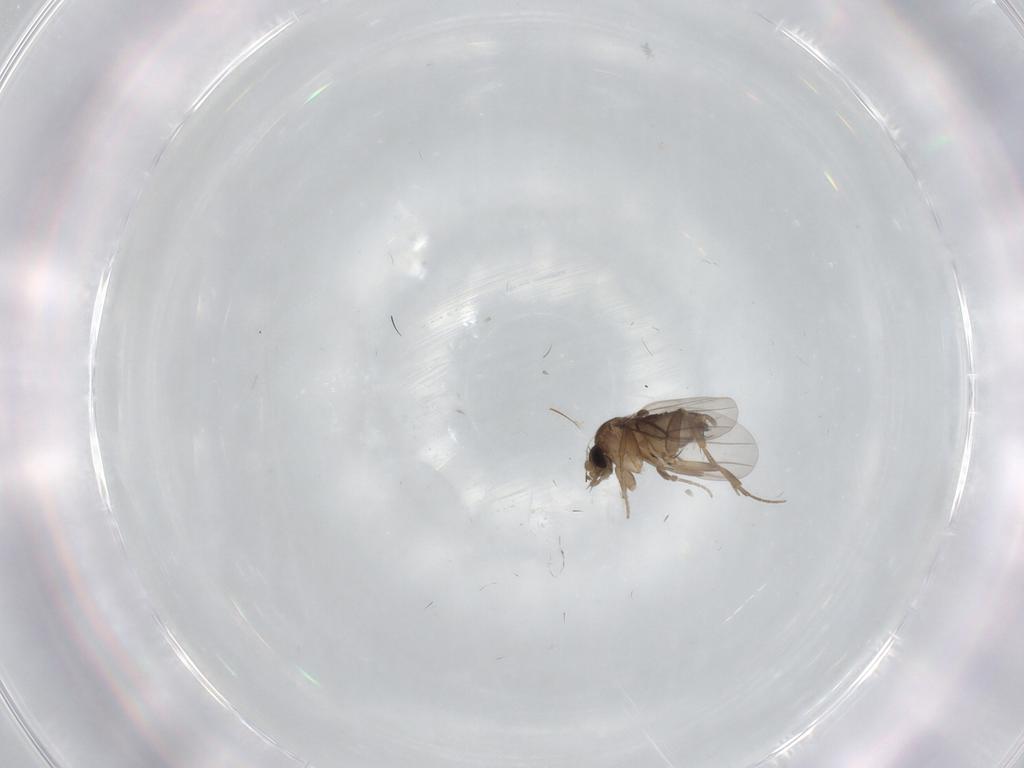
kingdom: Animalia
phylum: Arthropoda
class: Insecta
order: Diptera
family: Cecidomyiidae
